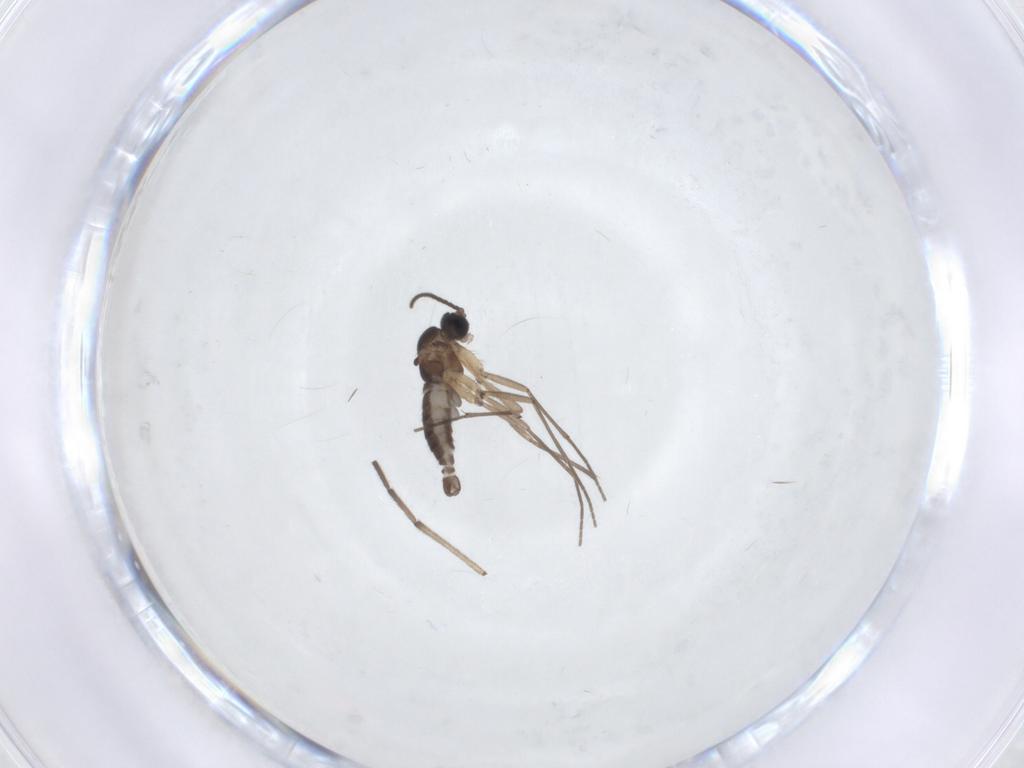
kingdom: Animalia
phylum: Arthropoda
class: Insecta
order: Diptera
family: Sciaridae
